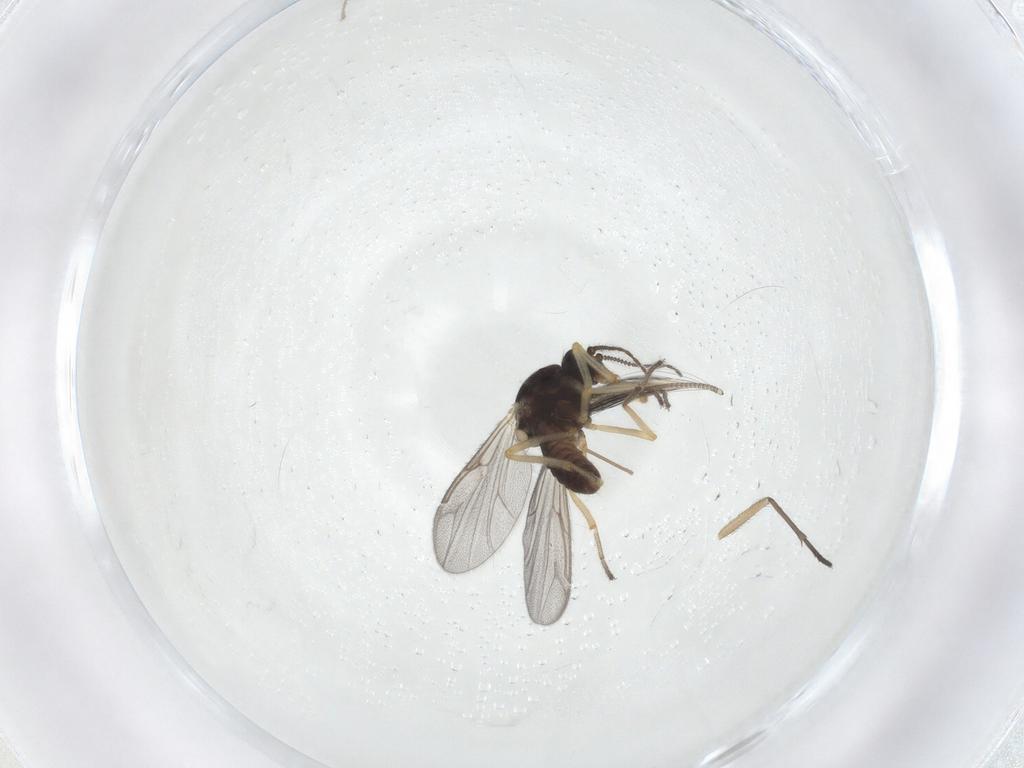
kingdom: Animalia
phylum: Arthropoda
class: Insecta
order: Diptera
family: Ceratopogonidae
